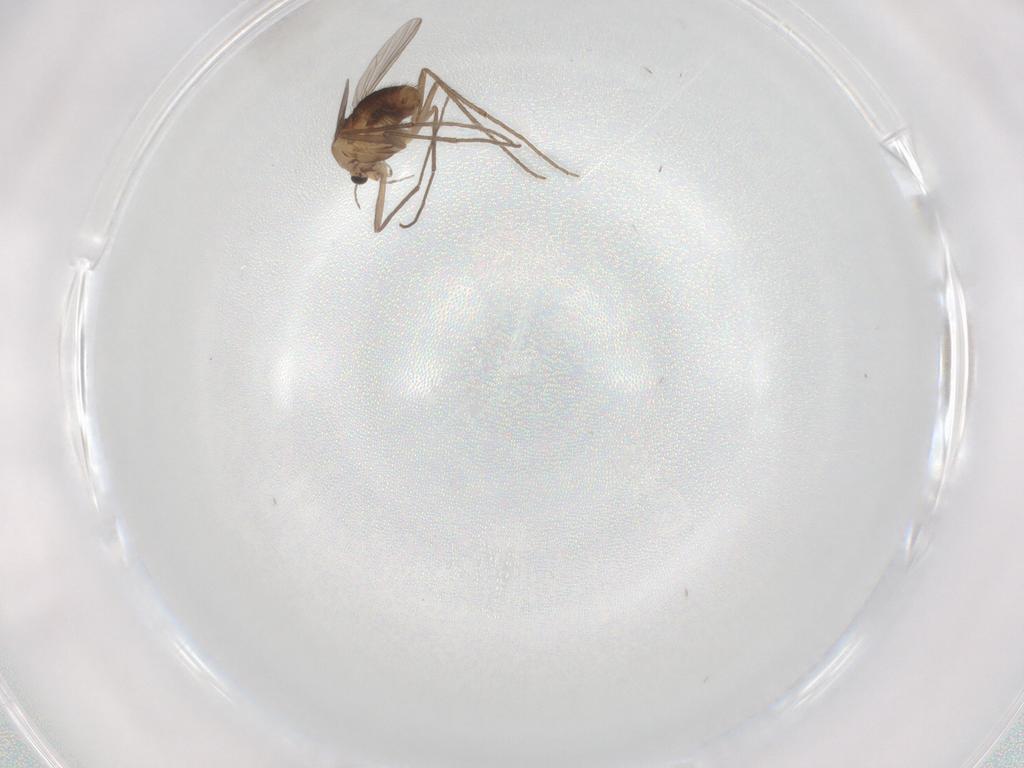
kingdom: Animalia
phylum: Arthropoda
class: Insecta
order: Diptera
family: Chironomidae
